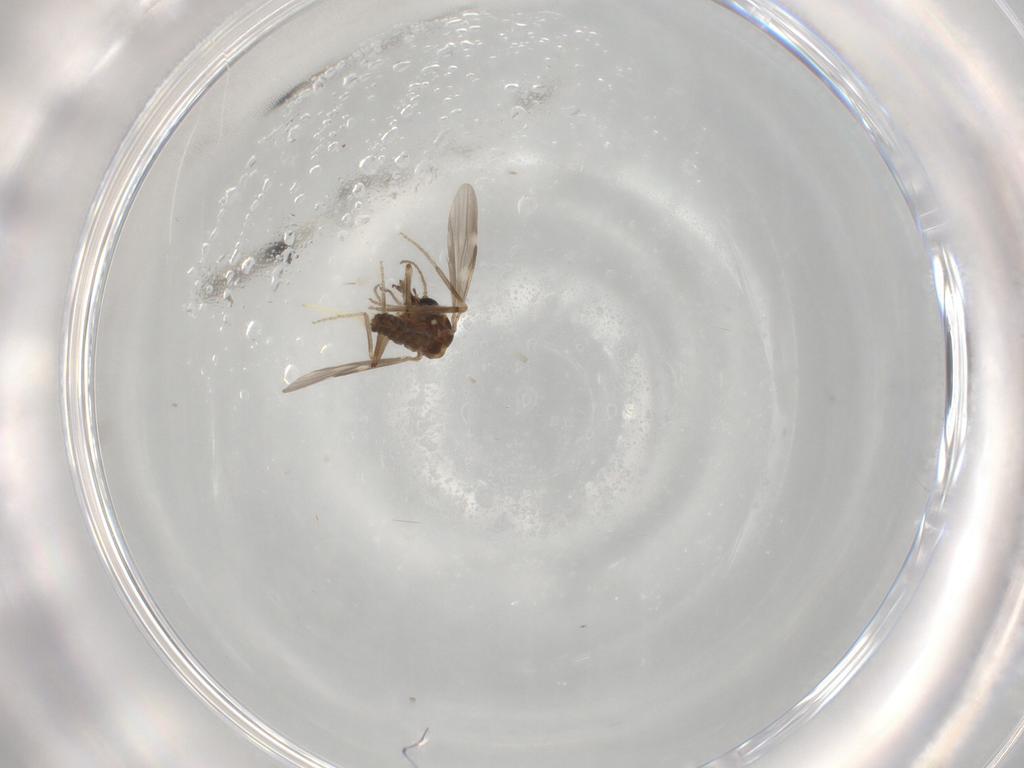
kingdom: Animalia
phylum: Arthropoda
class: Insecta
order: Diptera
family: Ceratopogonidae
